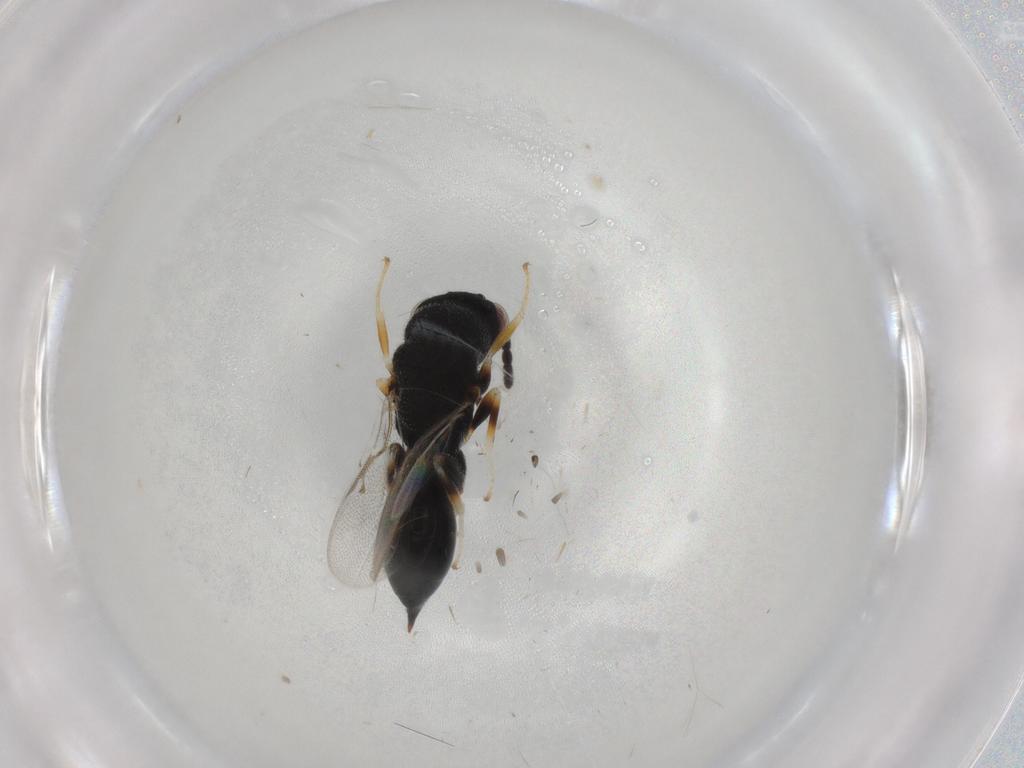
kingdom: Animalia
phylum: Arthropoda
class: Insecta
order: Hymenoptera
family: Eurytomidae
